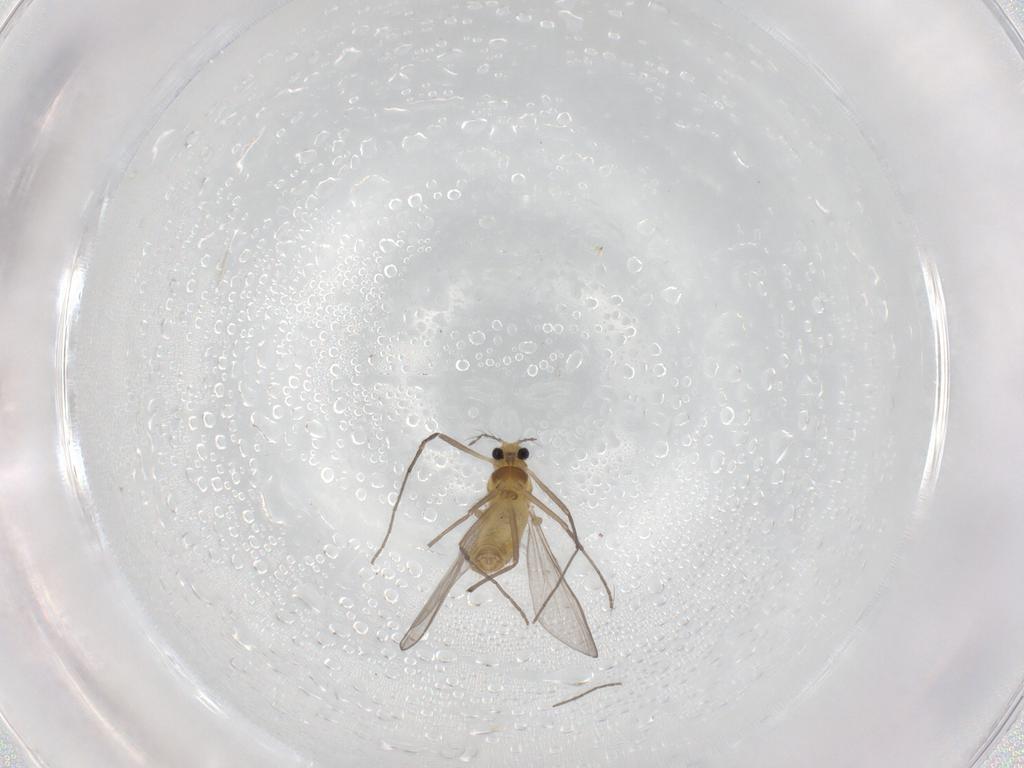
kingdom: Animalia
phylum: Arthropoda
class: Insecta
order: Diptera
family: Chironomidae
